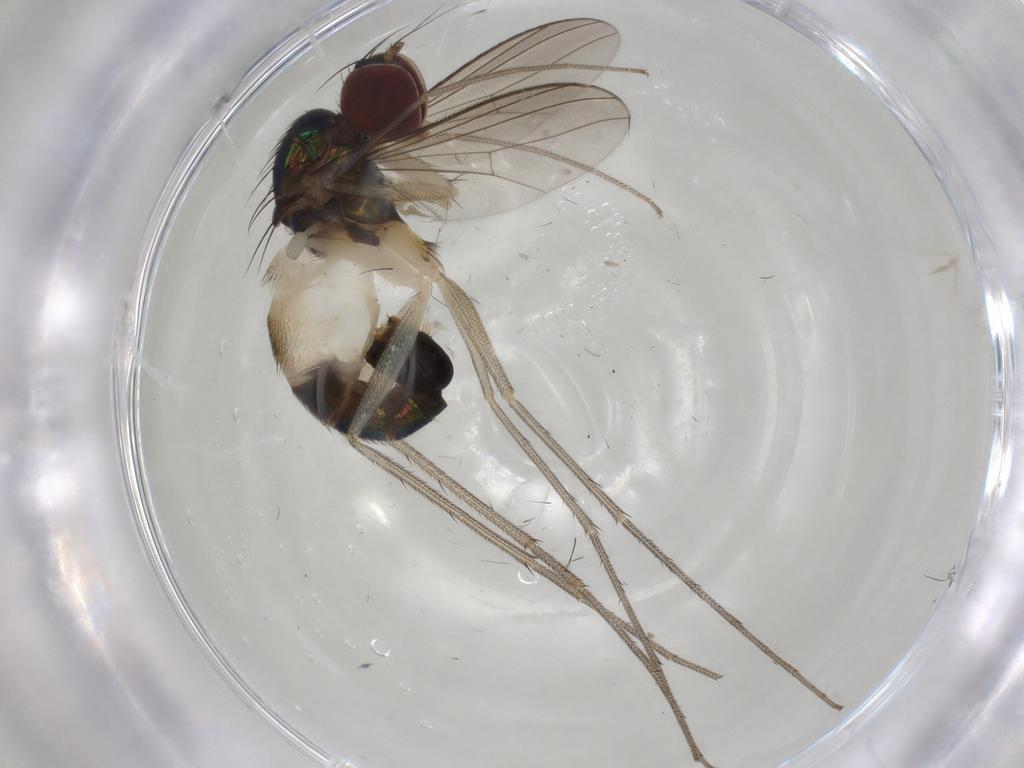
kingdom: Animalia
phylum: Arthropoda
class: Insecta
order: Diptera
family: Dolichopodidae
